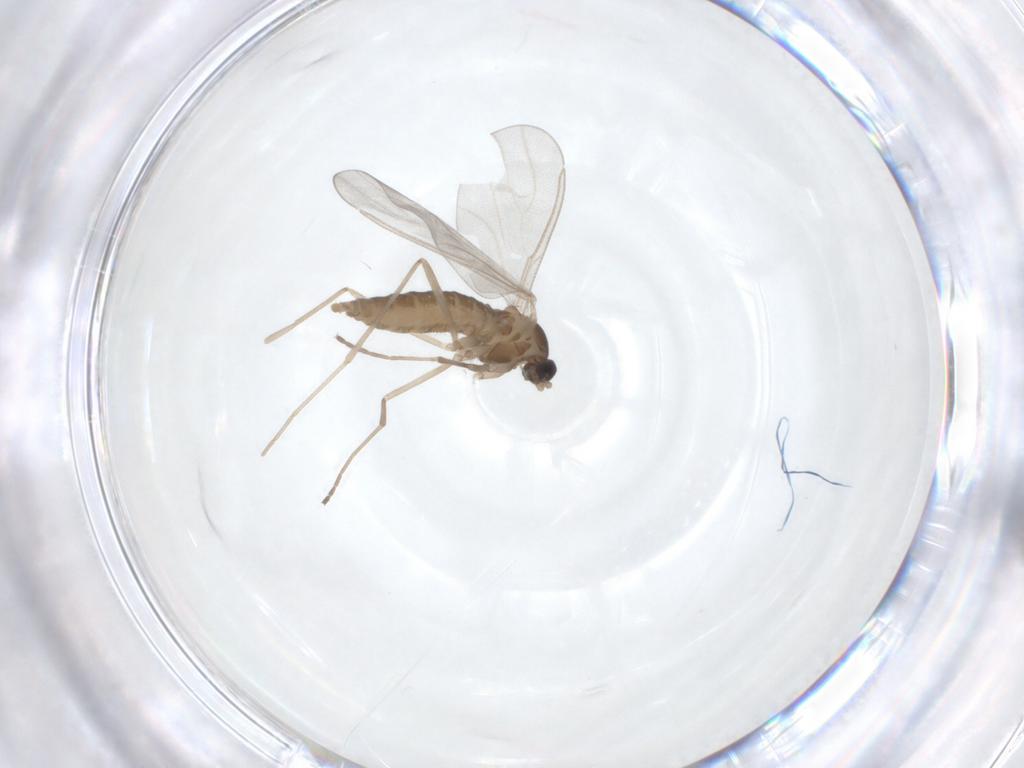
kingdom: Animalia
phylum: Arthropoda
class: Insecta
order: Diptera
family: Cecidomyiidae
